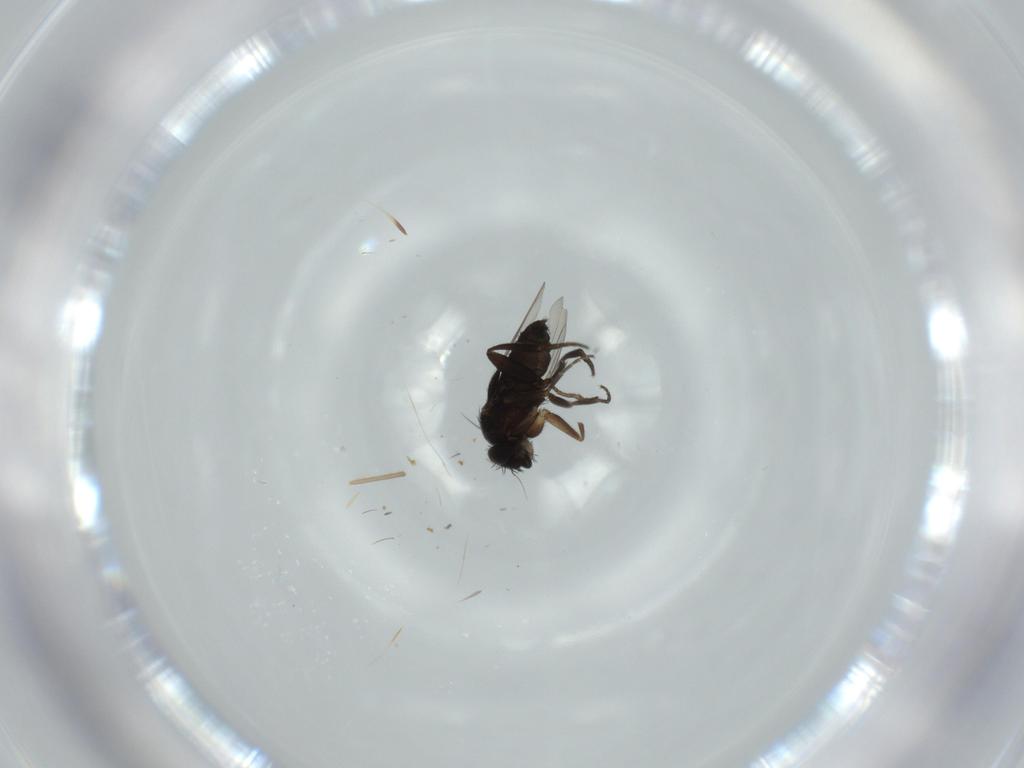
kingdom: Animalia
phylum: Arthropoda
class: Insecta
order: Diptera
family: Phoridae
